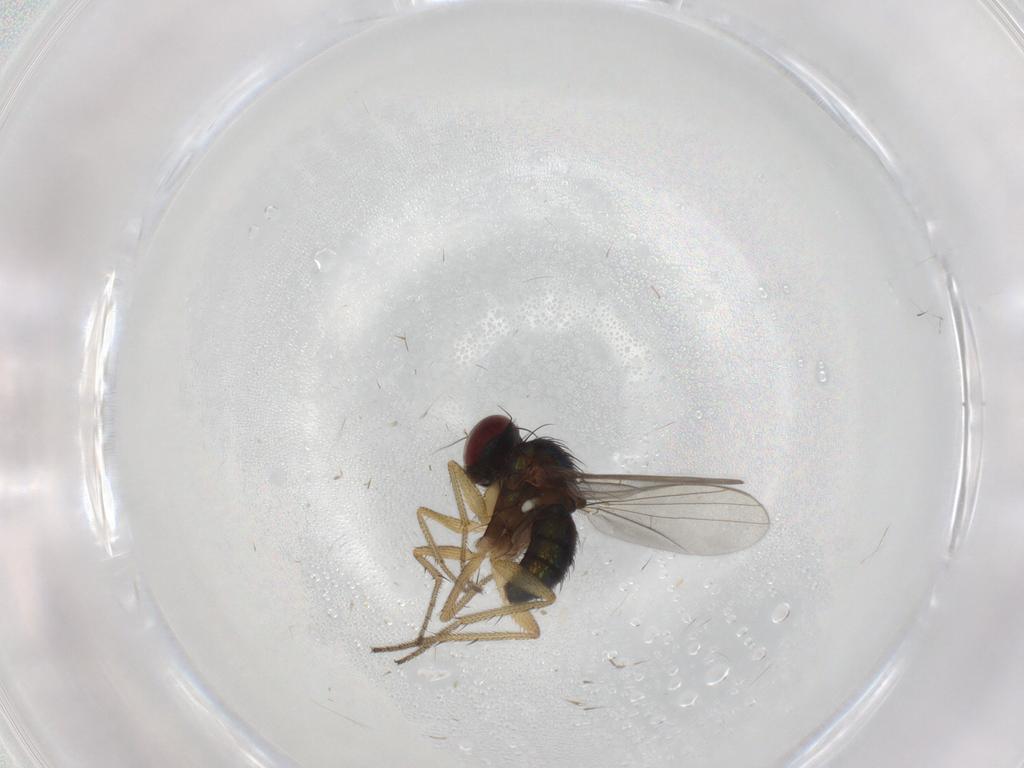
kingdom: Animalia
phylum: Arthropoda
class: Insecta
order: Diptera
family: Dolichopodidae
